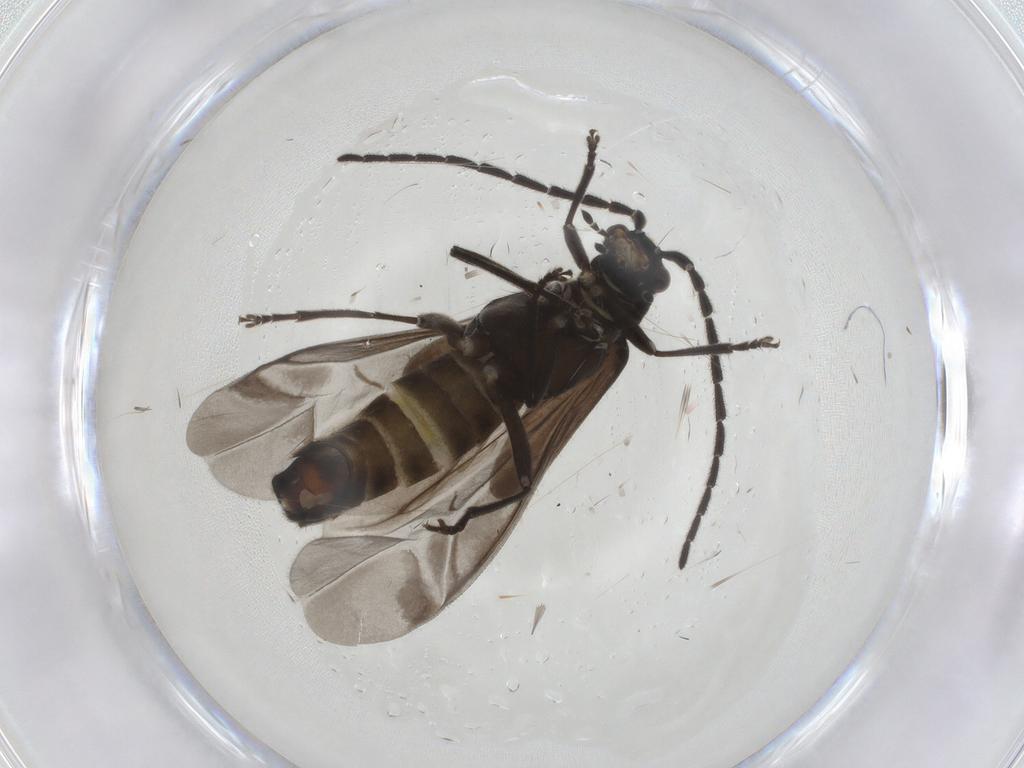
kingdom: Animalia
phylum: Arthropoda
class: Insecta
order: Coleoptera
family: Cantharidae
